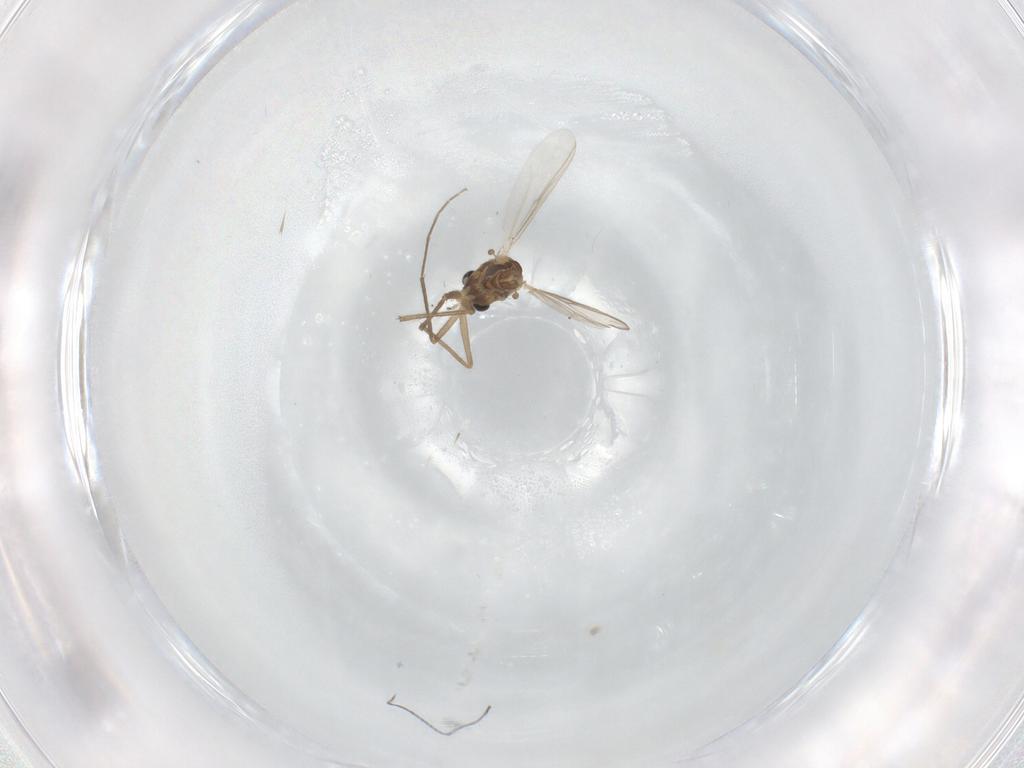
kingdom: Animalia
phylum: Arthropoda
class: Insecta
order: Diptera
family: Chironomidae
